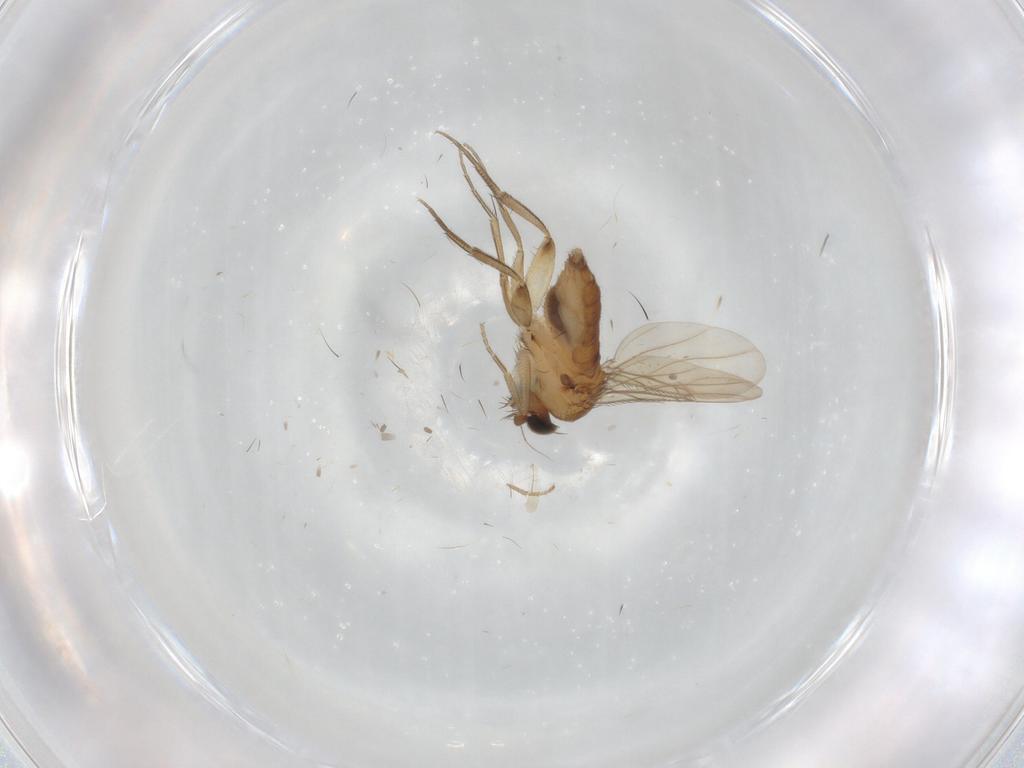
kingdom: Animalia
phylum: Arthropoda
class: Insecta
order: Diptera
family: Phoridae
